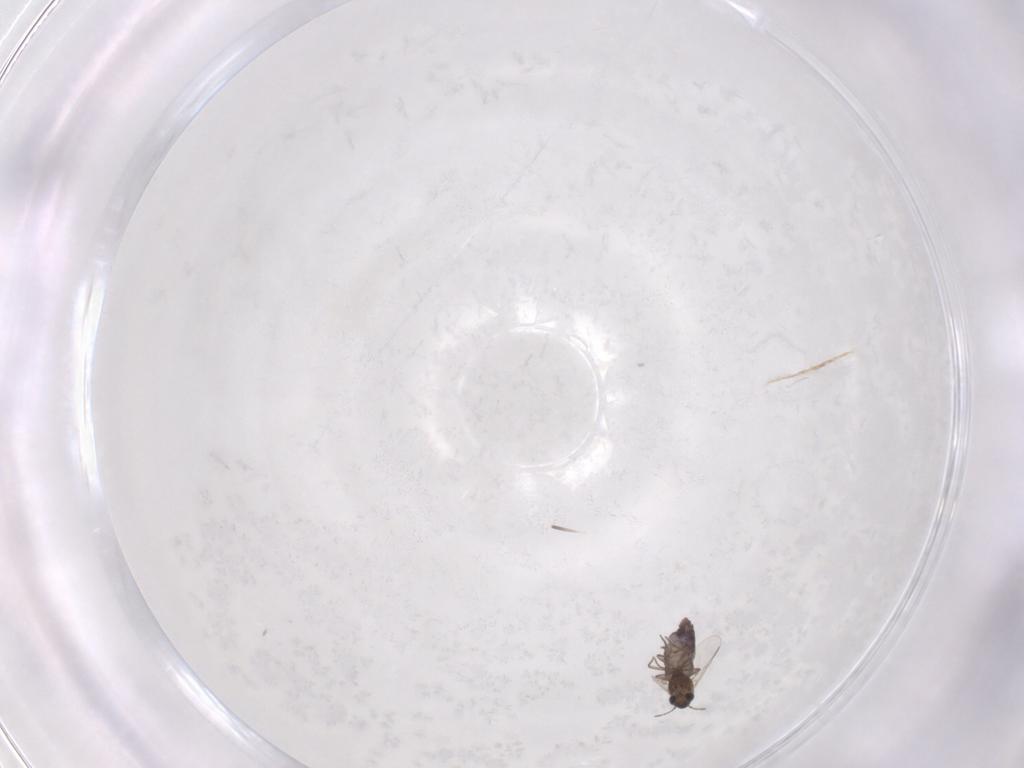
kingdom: Animalia
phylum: Arthropoda
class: Insecta
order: Diptera
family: Chironomidae
